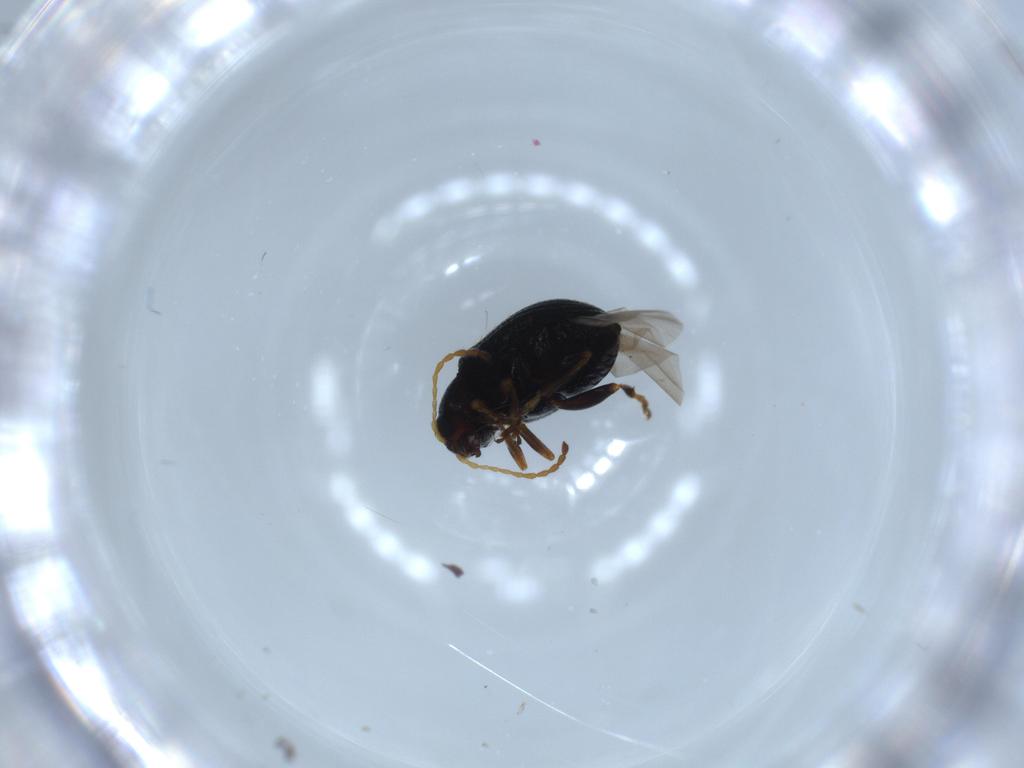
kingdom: Animalia
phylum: Arthropoda
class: Insecta
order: Coleoptera
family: Chrysomelidae
